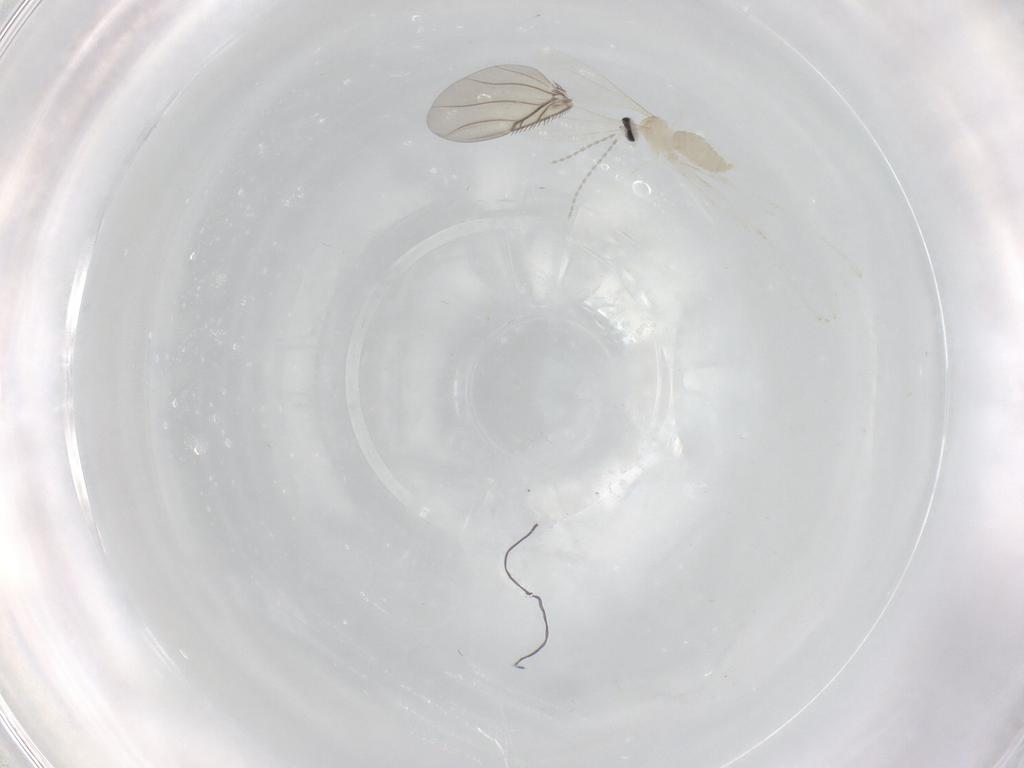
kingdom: Animalia
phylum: Arthropoda
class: Insecta
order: Diptera
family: Cecidomyiidae
